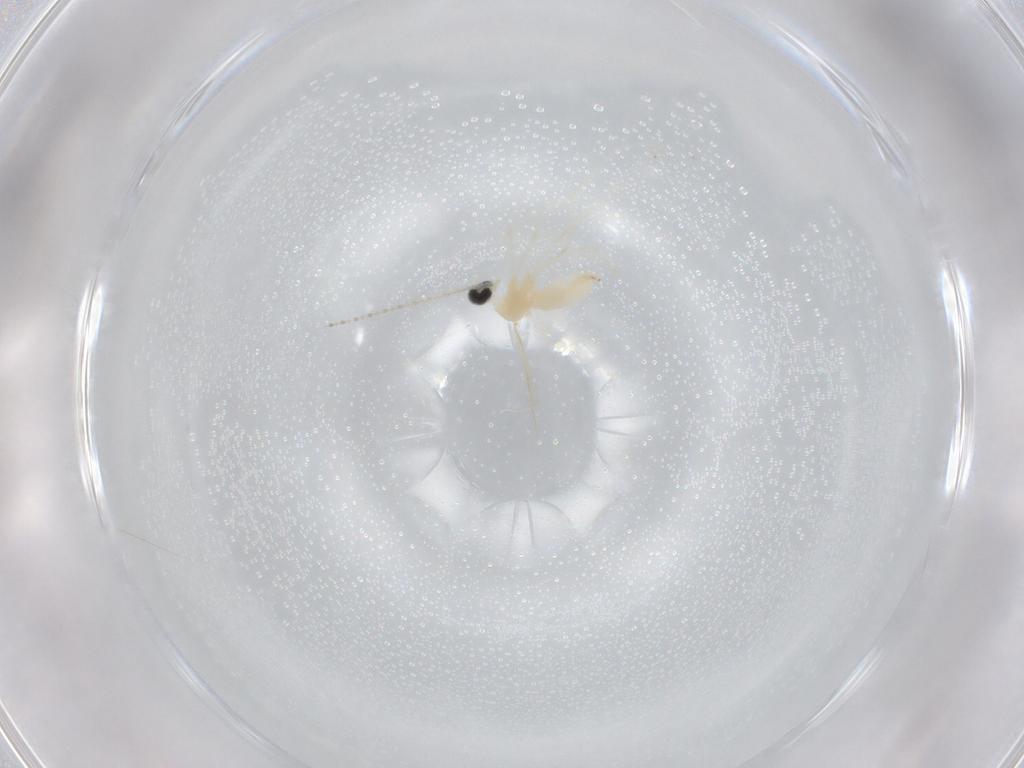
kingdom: Animalia
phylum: Arthropoda
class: Insecta
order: Diptera
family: Cecidomyiidae
